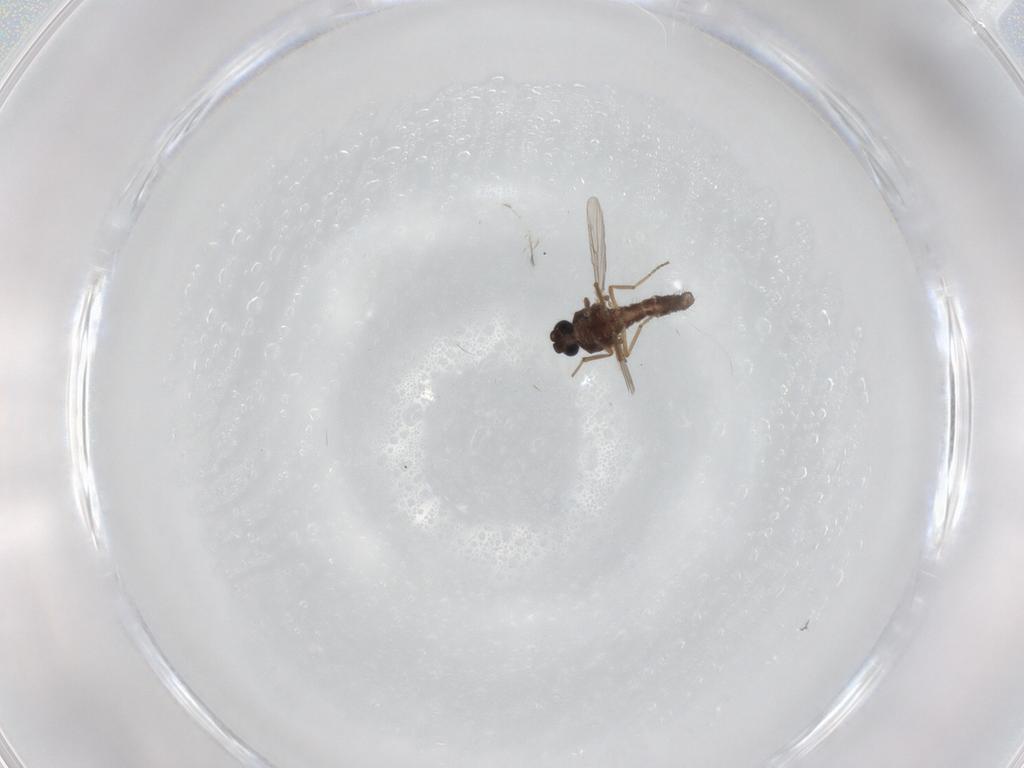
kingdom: Animalia
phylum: Arthropoda
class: Insecta
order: Diptera
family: Ceratopogonidae
